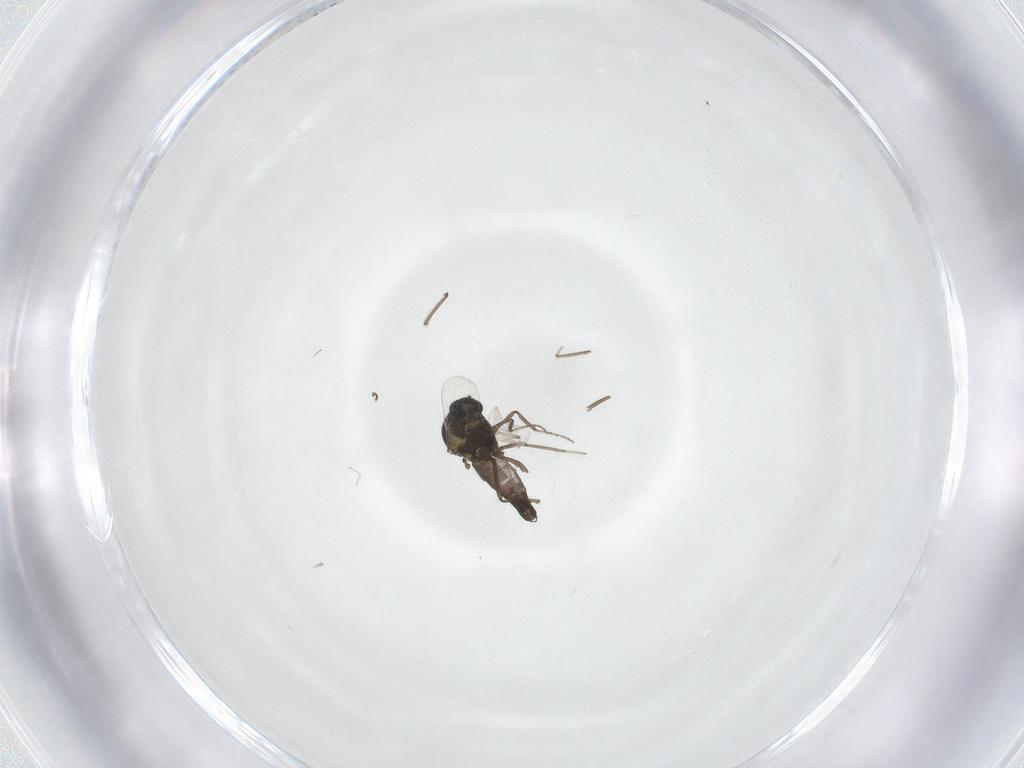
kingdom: Animalia
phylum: Arthropoda
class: Insecta
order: Diptera
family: Ceratopogonidae
